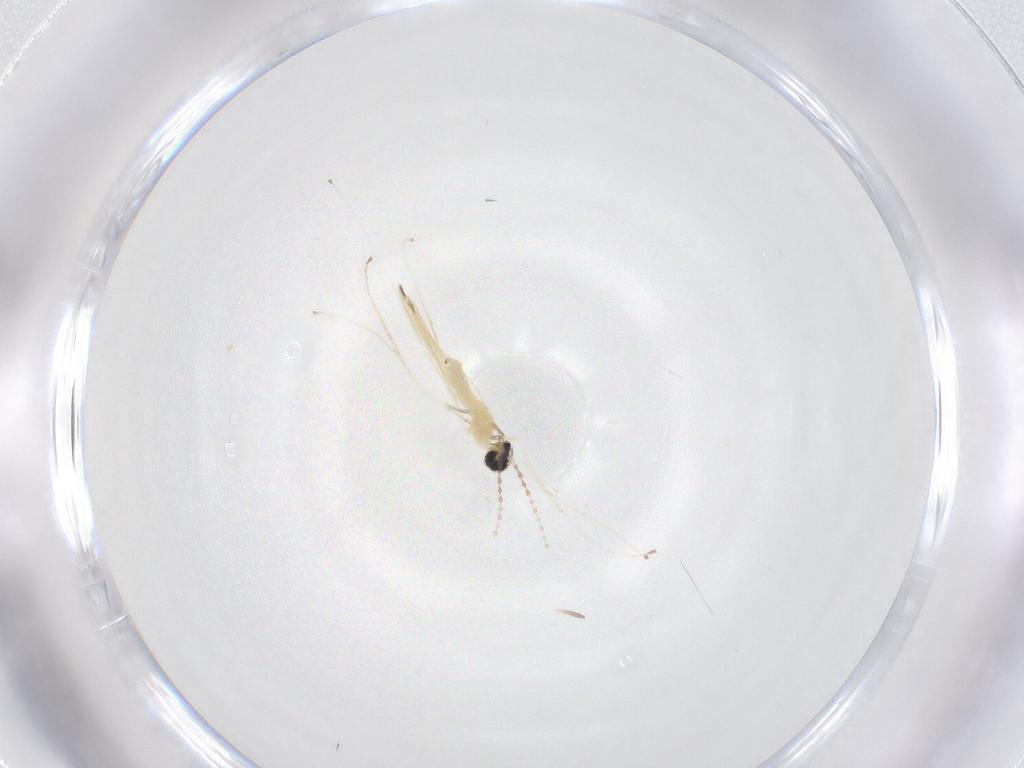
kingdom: Animalia
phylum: Arthropoda
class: Insecta
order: Diptera
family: Cecidomyiidae
